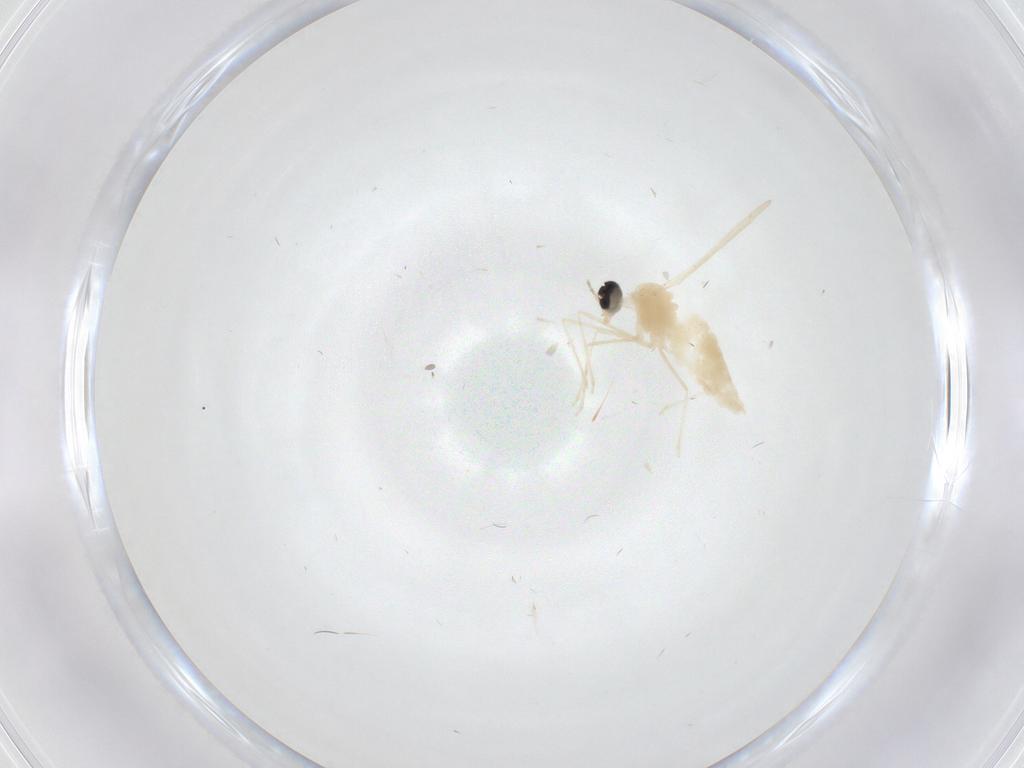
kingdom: Animalia
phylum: Arthropoda
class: Insecta
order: Diptera
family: Cecidomyiidae
